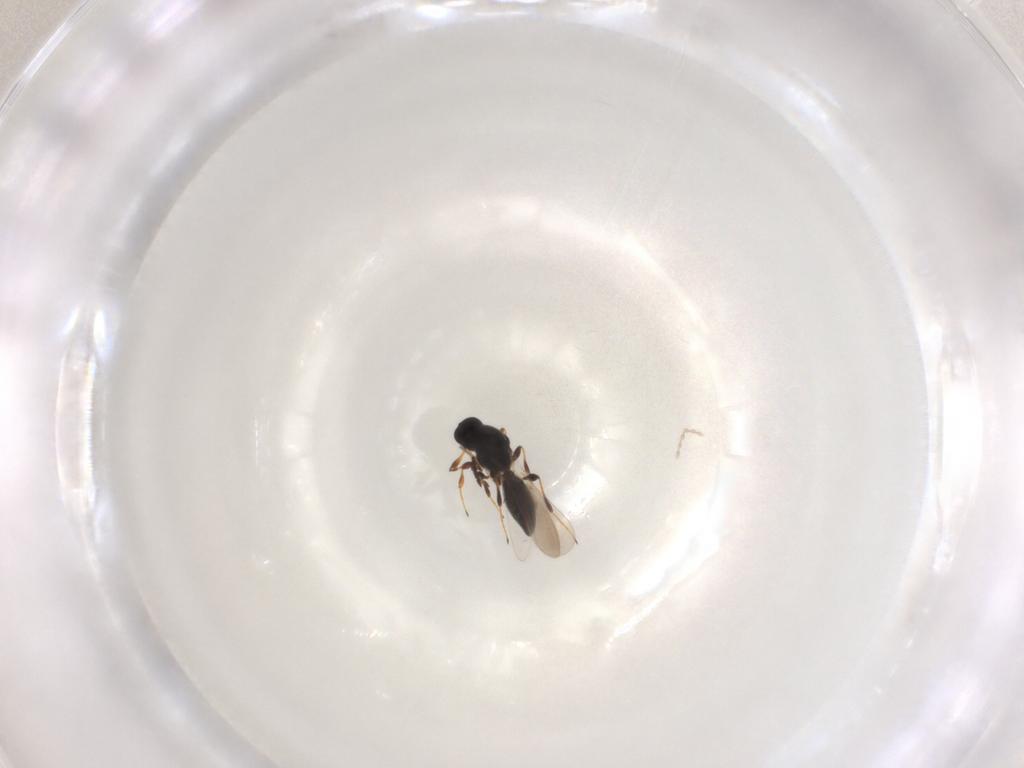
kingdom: Animalia
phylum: Arthropoda
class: Insecta
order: Hymenoptera
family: Platygastridae
